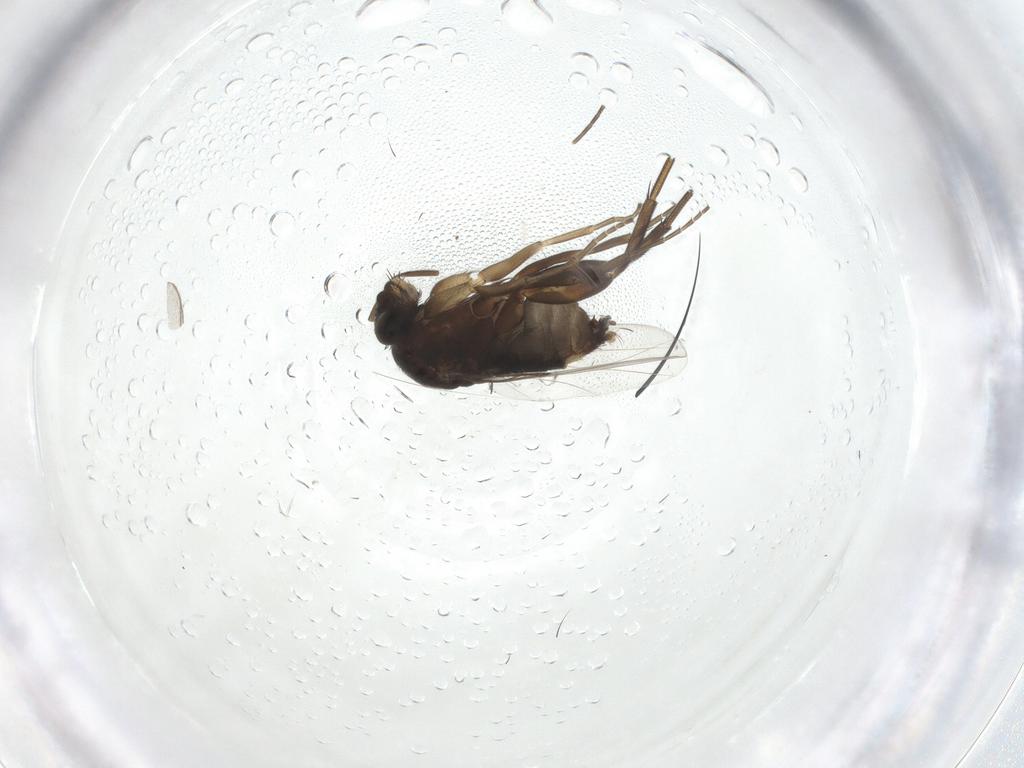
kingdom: Animalia
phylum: Arthropoda
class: Insecta
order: Diptera
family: Phoridae
